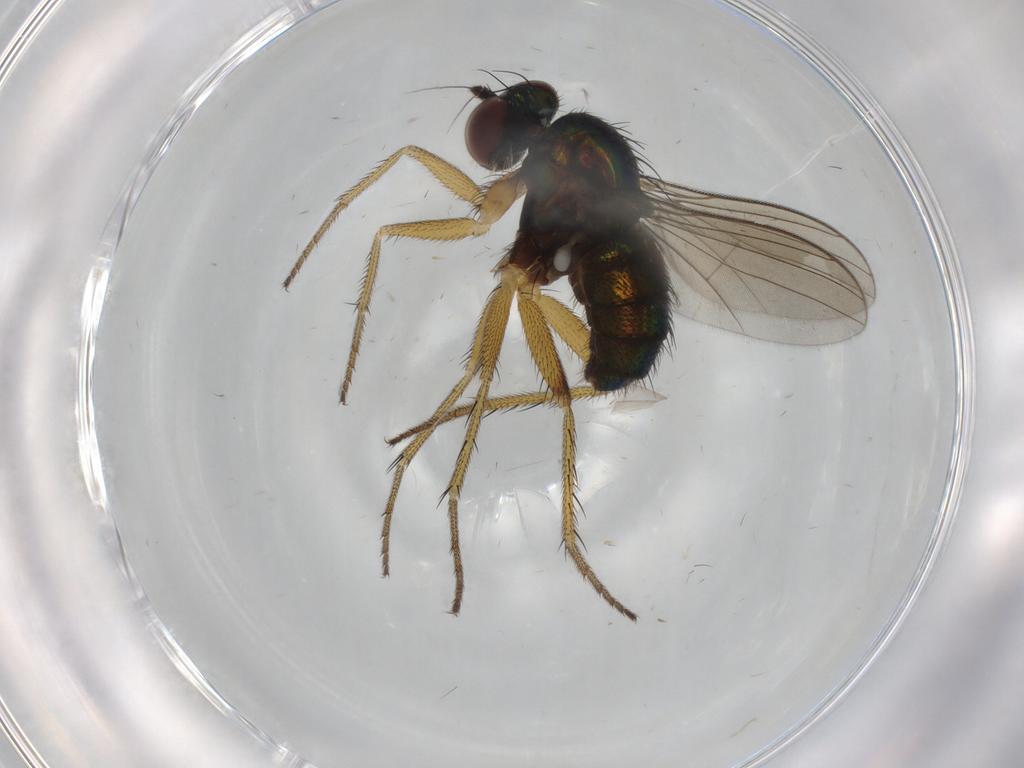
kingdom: Animalia
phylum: Arthropoda
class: Insecta
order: Diptera
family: Dolichopodidae
